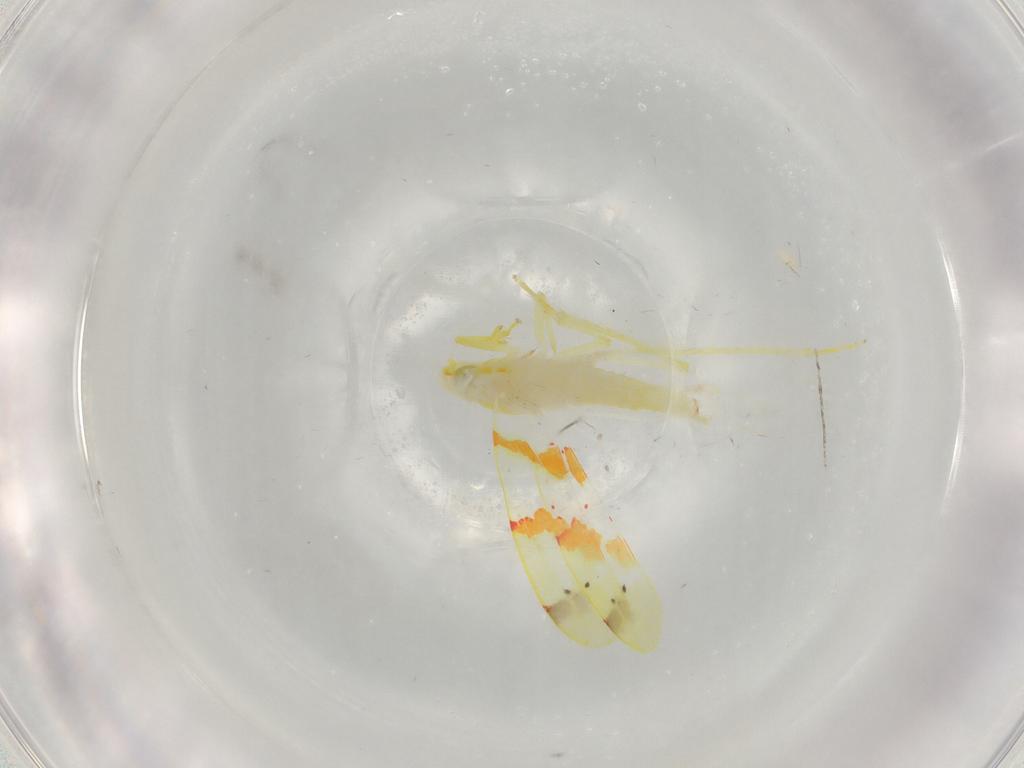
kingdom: Animalia
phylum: Arthropoda
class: Insecta
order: Hemiptera
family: Cicadellidae
